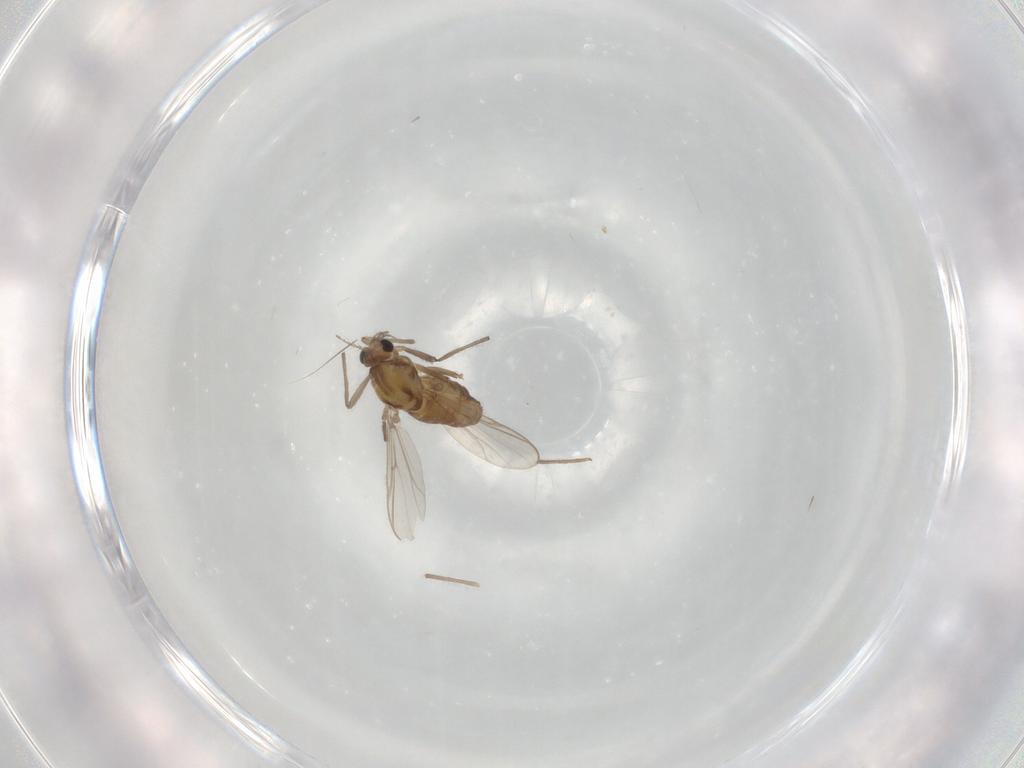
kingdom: Animalia
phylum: Arthropoda
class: Insecta
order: Diptera
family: Chironomidae
